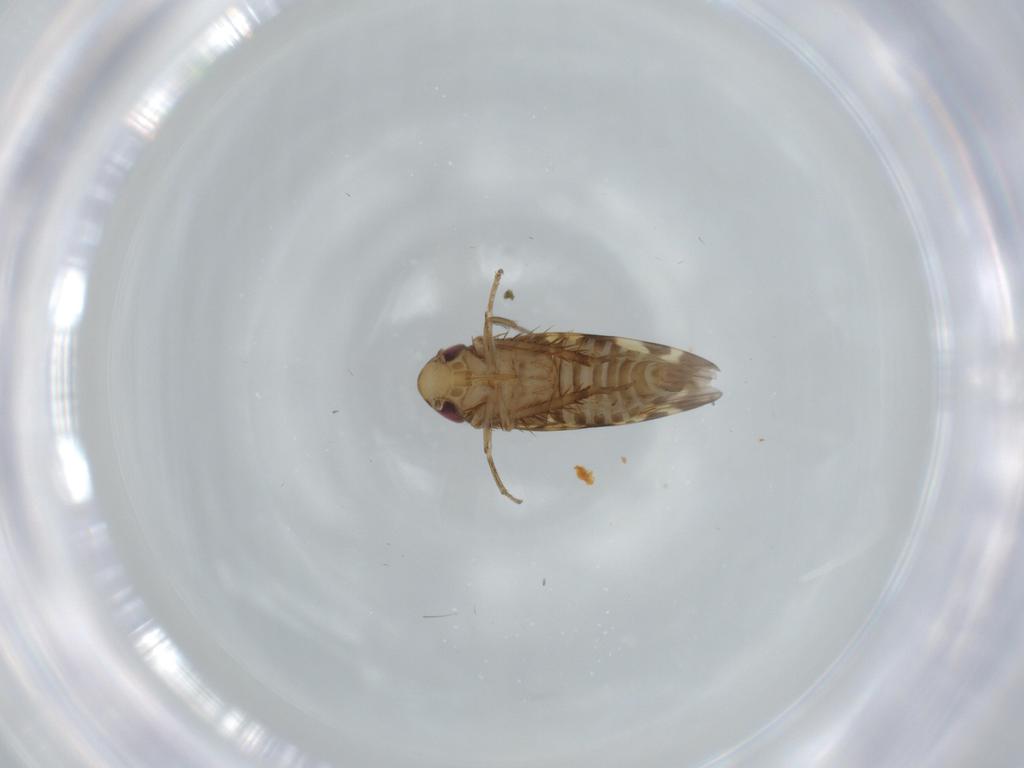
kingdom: Animalia
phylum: Arthropoda
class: Insecta
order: Hemiptera
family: Cicadellidae
